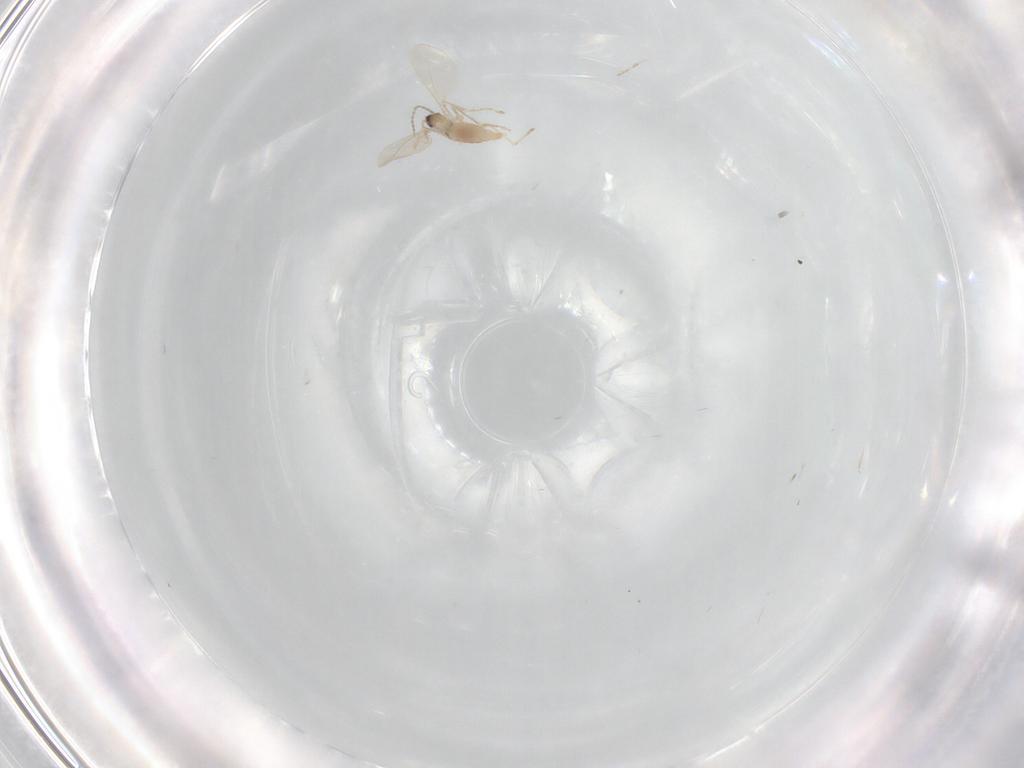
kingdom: Animalia
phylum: Arthropoda
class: Insecta
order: Diptera
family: Cecidomyiidae
